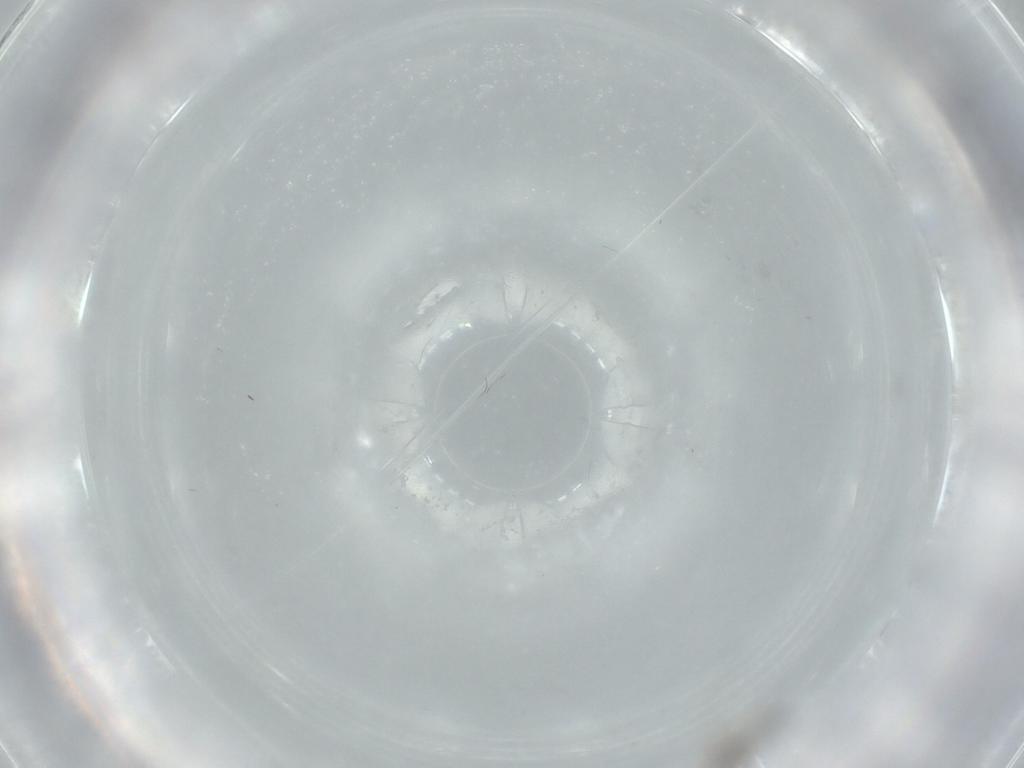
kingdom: Animalia
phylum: Arthropoda
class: Insecta
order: Hymenoptera
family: Mymaridae
